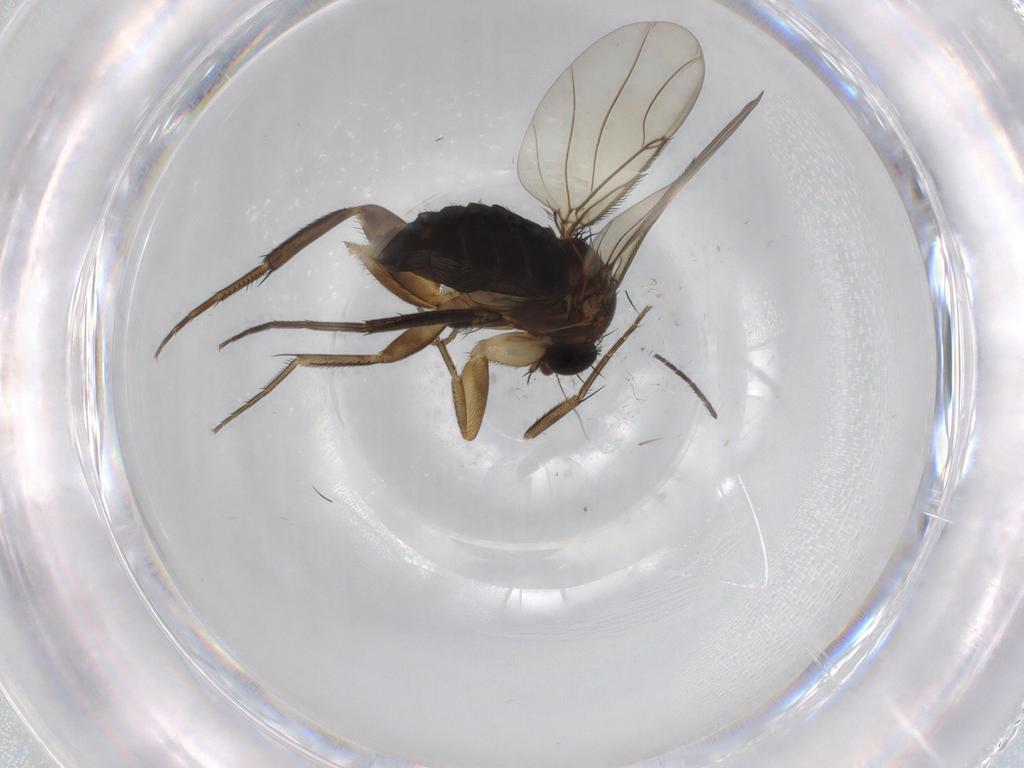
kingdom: Animalia
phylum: Arthropoda
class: Insecta
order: Diptera
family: Cecidomyiidae
